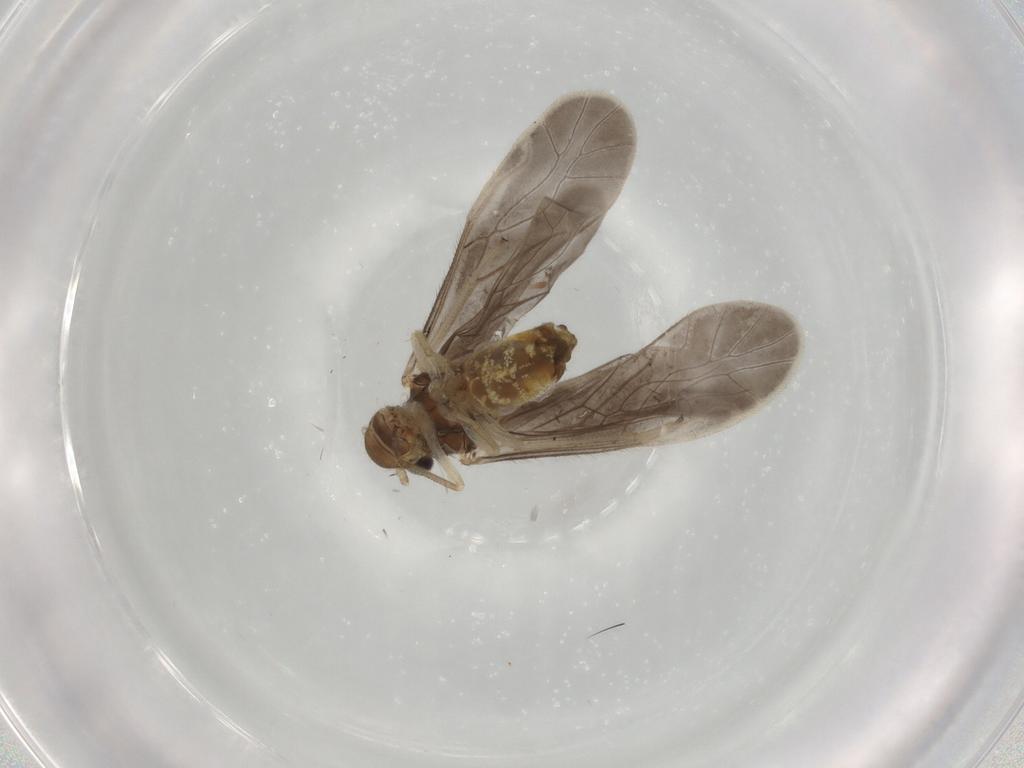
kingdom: Animalia
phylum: Arthropoda
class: Insecta
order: Psocodea
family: Caeciliusidae
